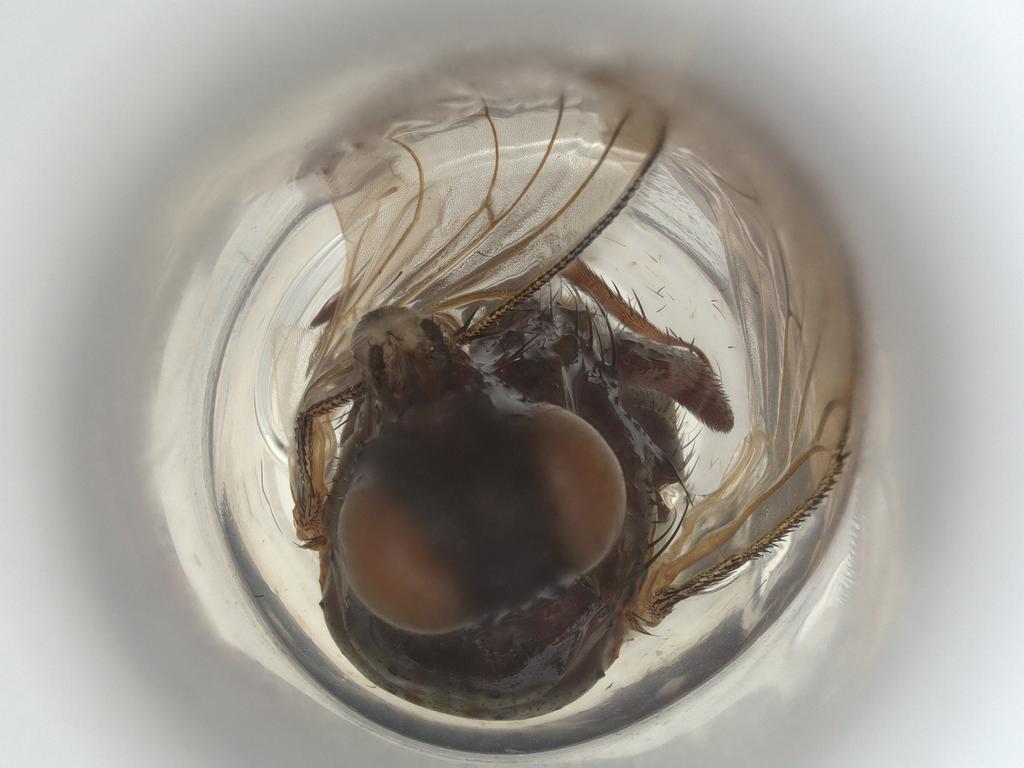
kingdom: Animalia
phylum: Arthropoda
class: Insecta
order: Diptera
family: Muscidae
